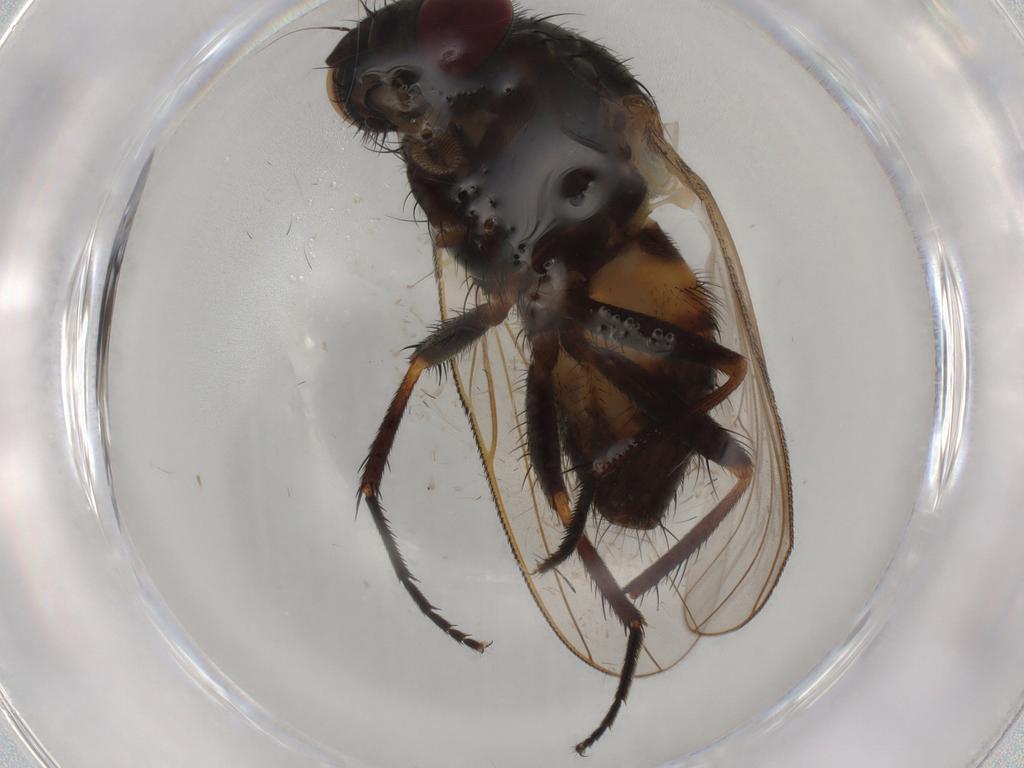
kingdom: Animalia
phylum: Arthropoda
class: Insecta
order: Diptera
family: Fannia
